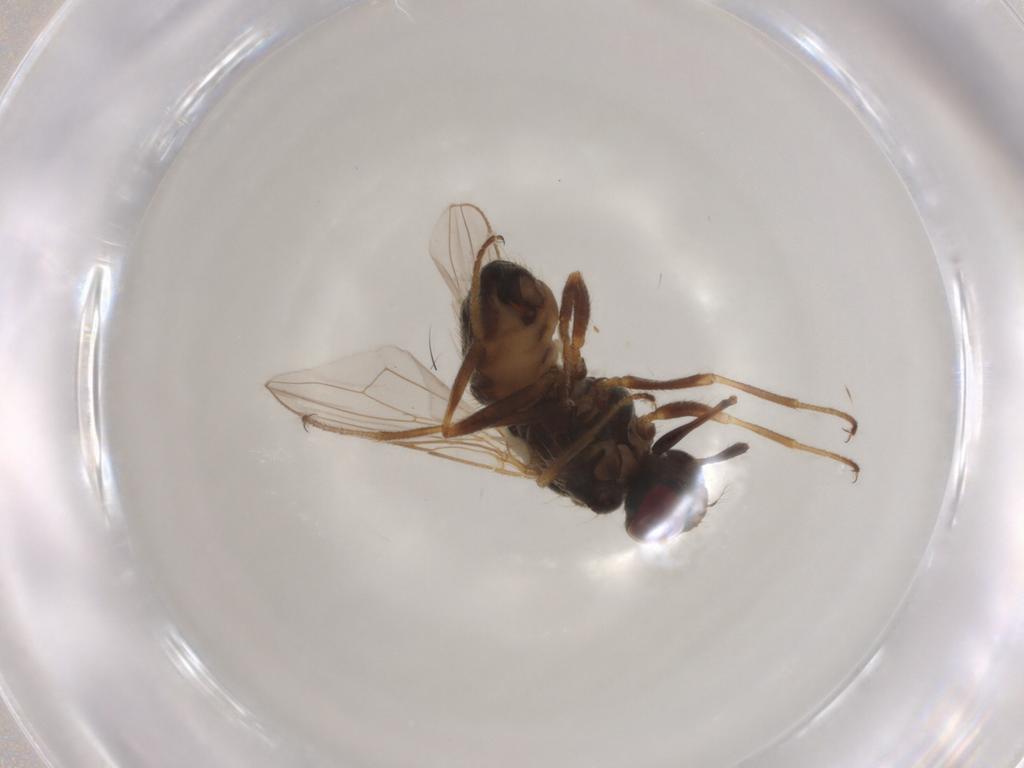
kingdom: Animalia
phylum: Arthropoda
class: Insecta
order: Diptera
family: Muscidae
